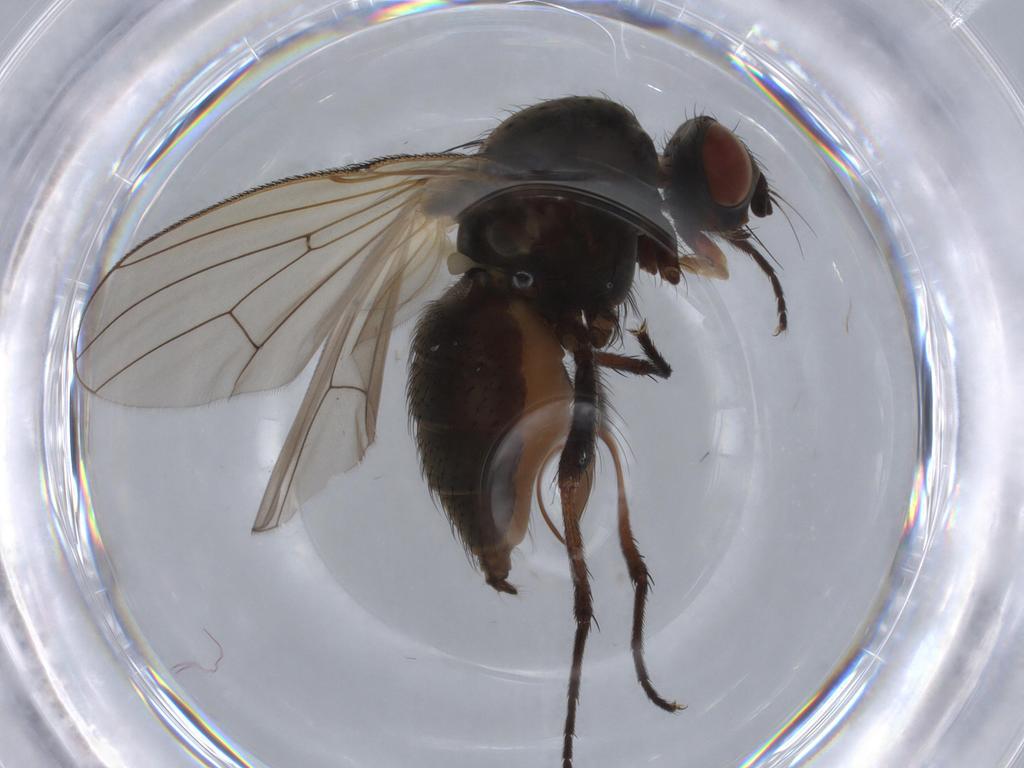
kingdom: Animalia
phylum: Arthropoda
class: Insecta
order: Diptera
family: Anthomyiidae
